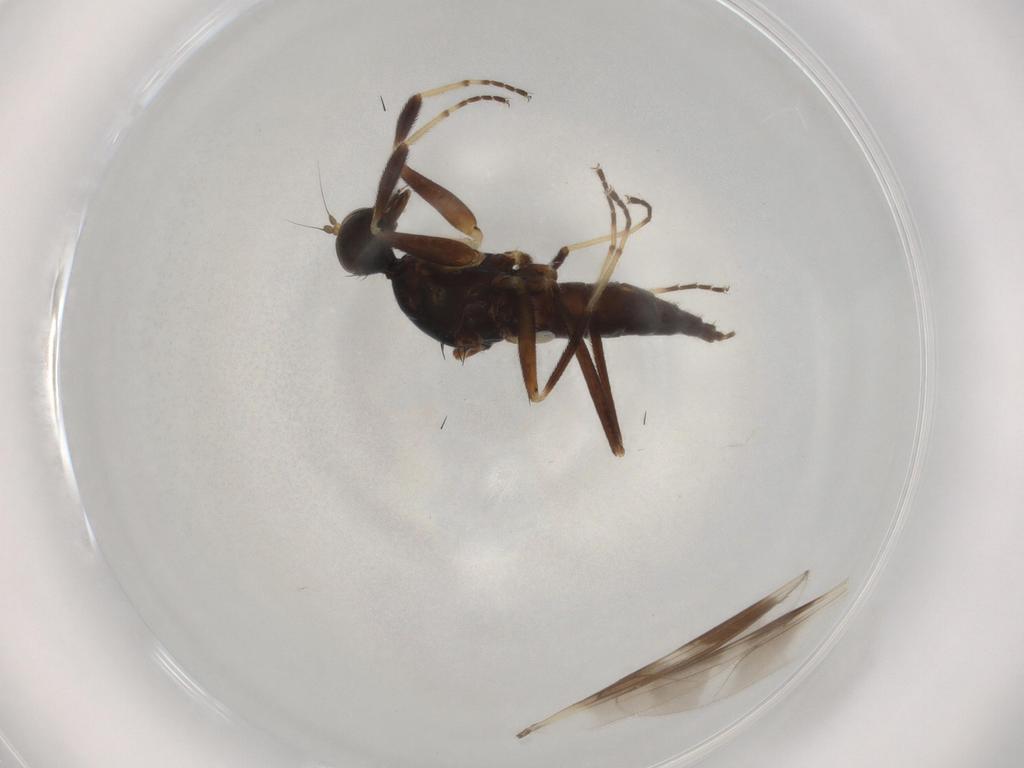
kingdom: Animalia
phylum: Arthropoda
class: Insecta
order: Diptera
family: Hybotidae
